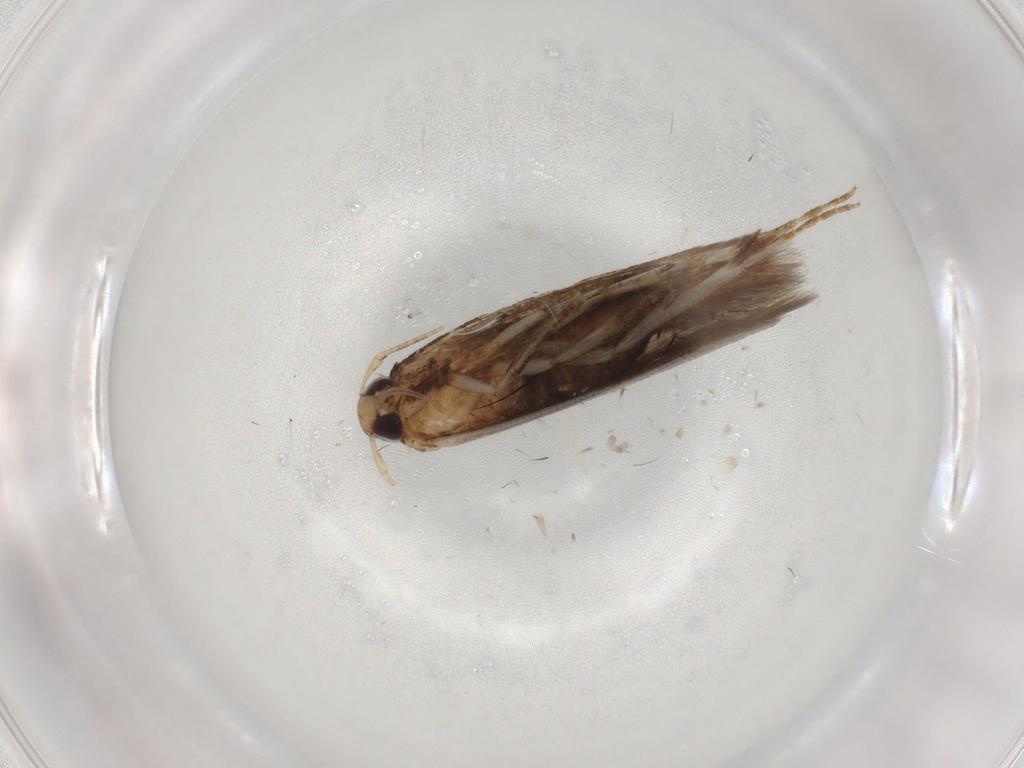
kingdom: Animalia
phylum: Arthropoda
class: Insecta
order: Lepidoptera
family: Cosmopterigidae
